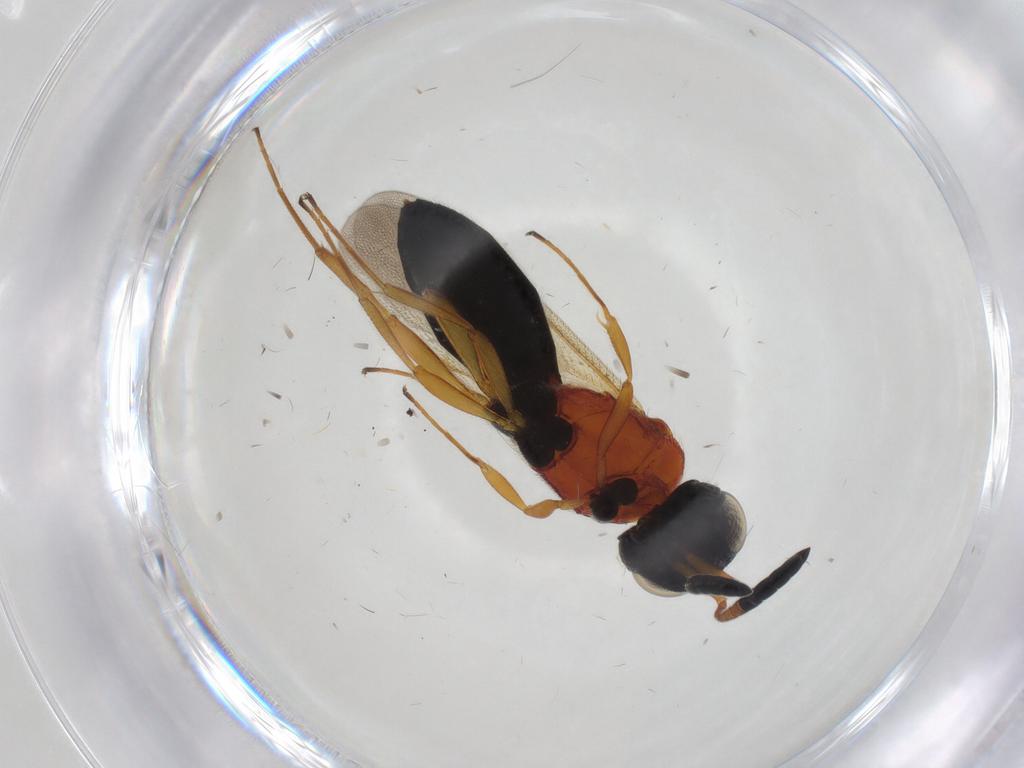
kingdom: Animalia
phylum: Arthropoda
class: Insecta
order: Hymenoptera
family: Scelionidae
